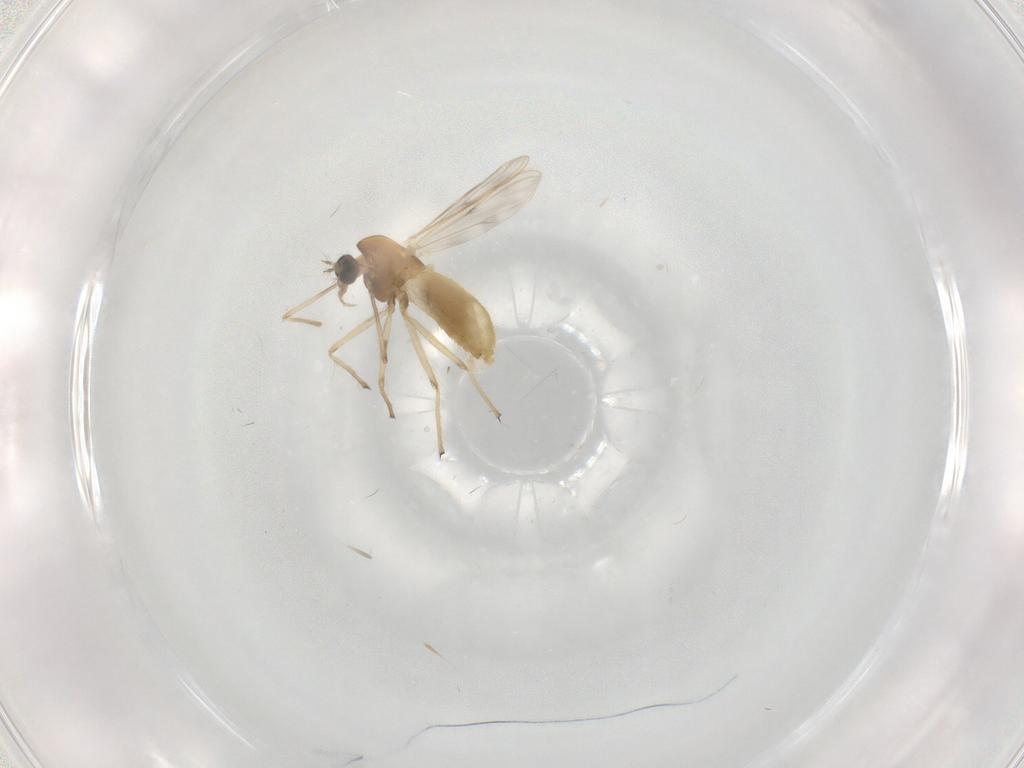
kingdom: Animalia
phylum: Arthropoda
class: Insecta
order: Diptera
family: Chironomidae
